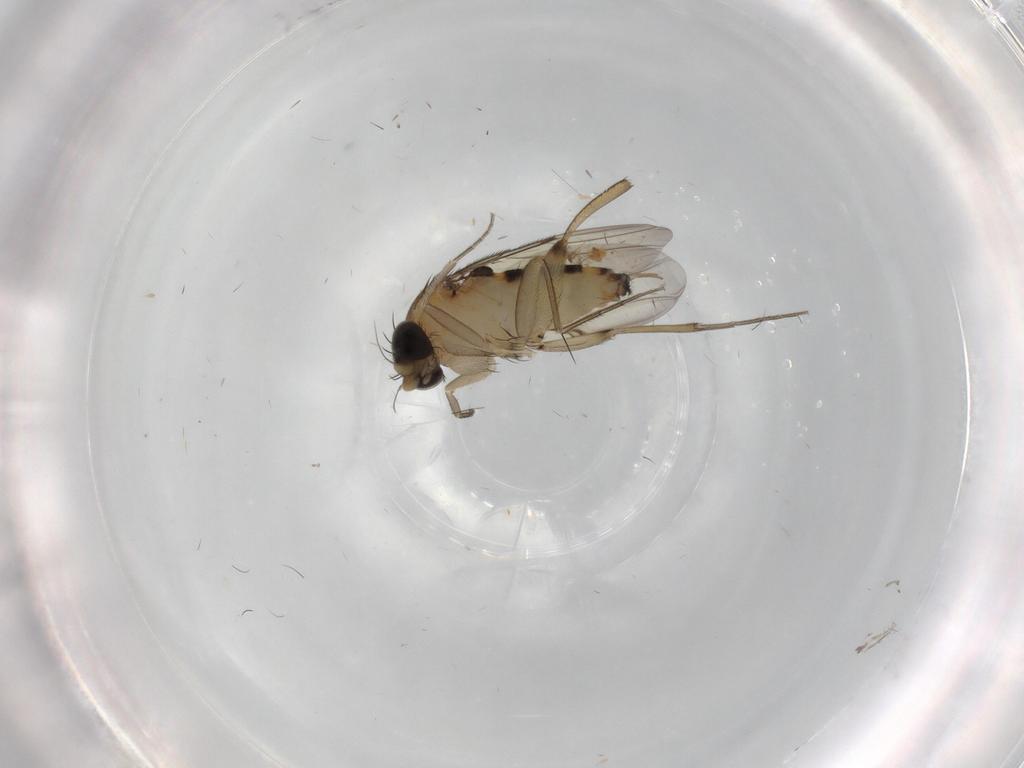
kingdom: Animalia
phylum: Arthropoda
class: Insecta
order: Diptera
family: Phoridae
